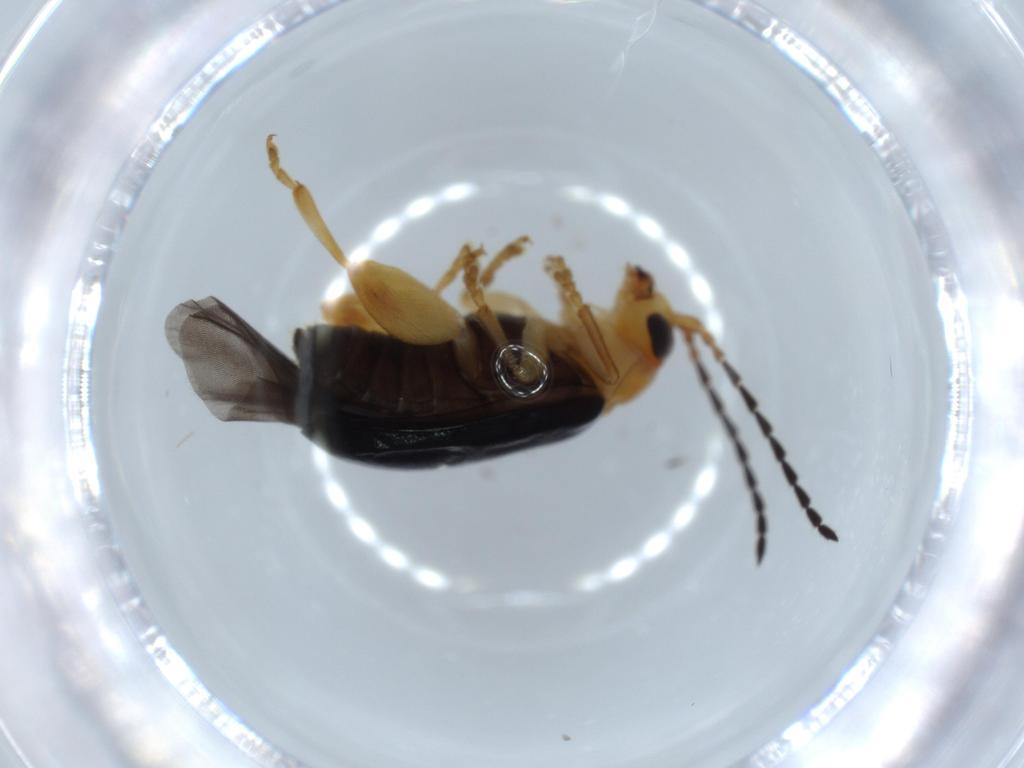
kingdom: Animalia
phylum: Arthropoda
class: Insecta
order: Coleoptera
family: Chrysomelidae
